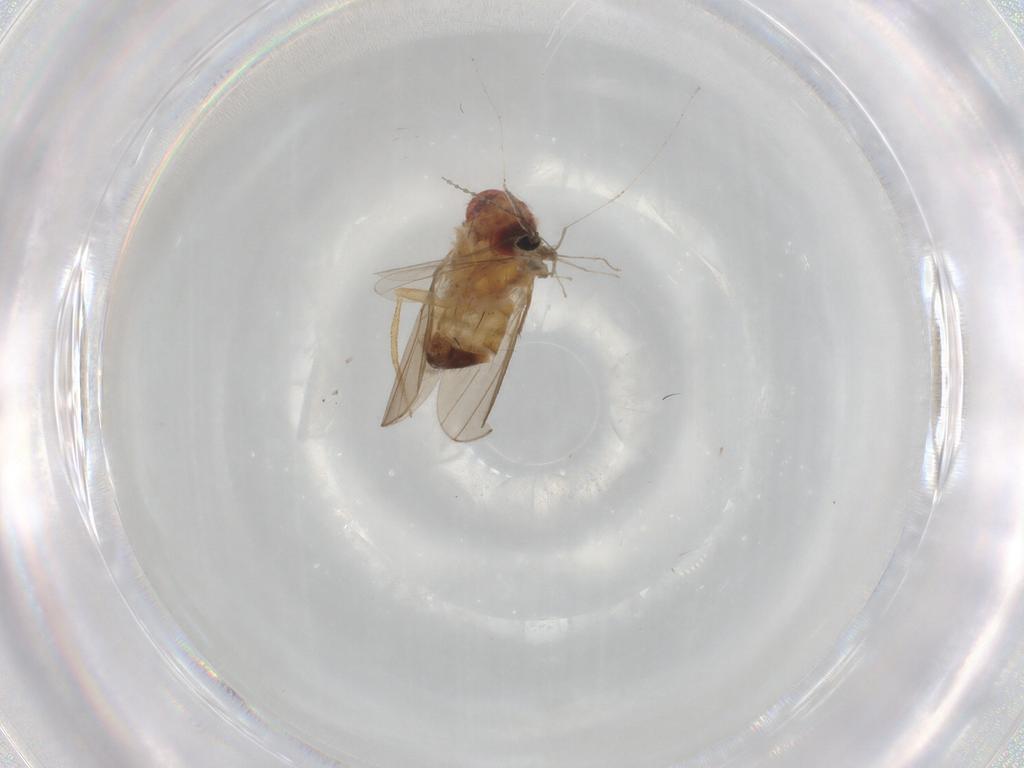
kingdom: Animalia
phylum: Arthropoda
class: Insecta
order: Diptera
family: Cecidomyiidae
